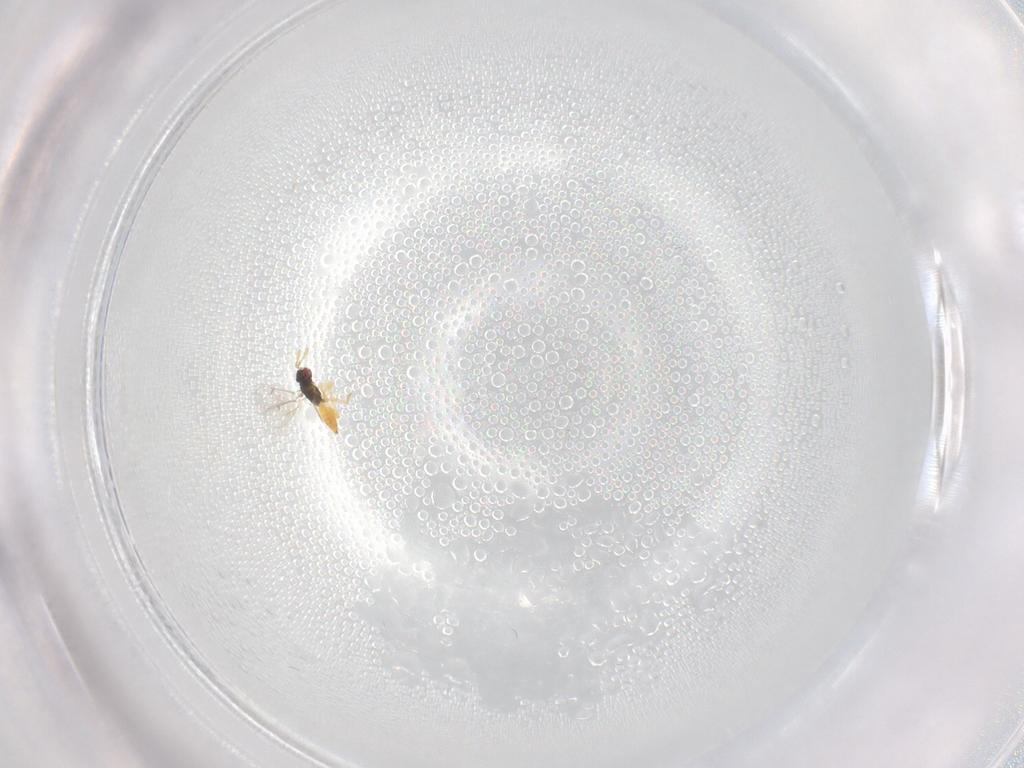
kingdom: Animalia
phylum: Arthropoda
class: Insecta
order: Hymenoptera
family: Eulophidae
